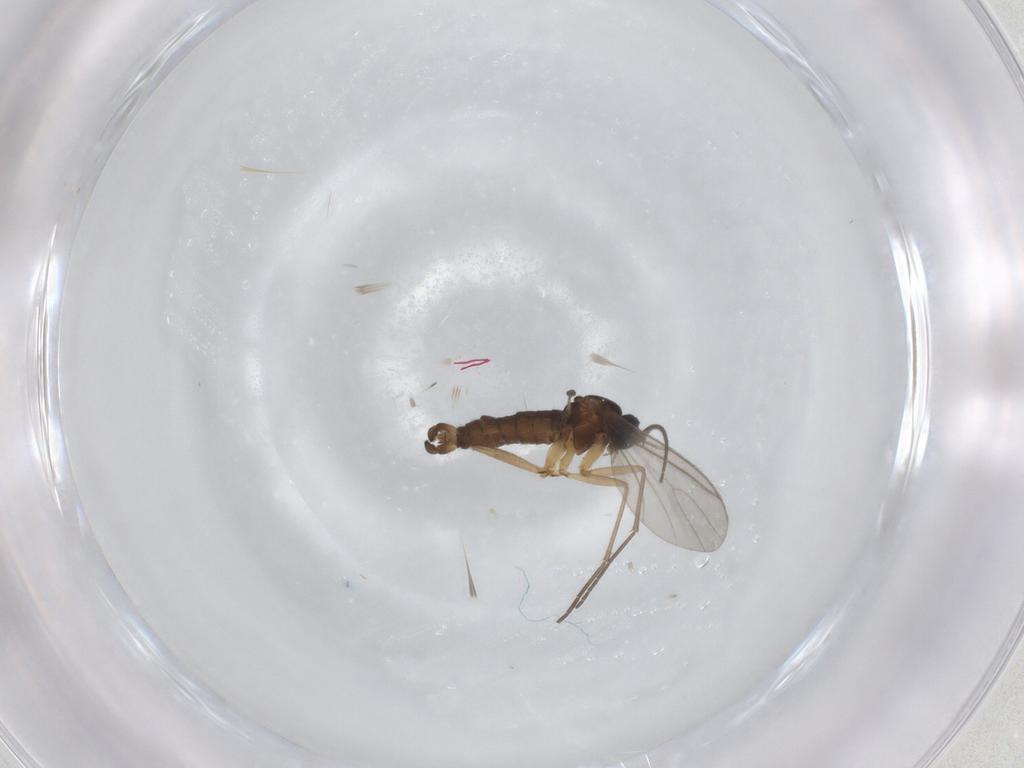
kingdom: Animalia
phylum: Arthropoda
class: Insecta
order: Diptera
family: Sciaridae
